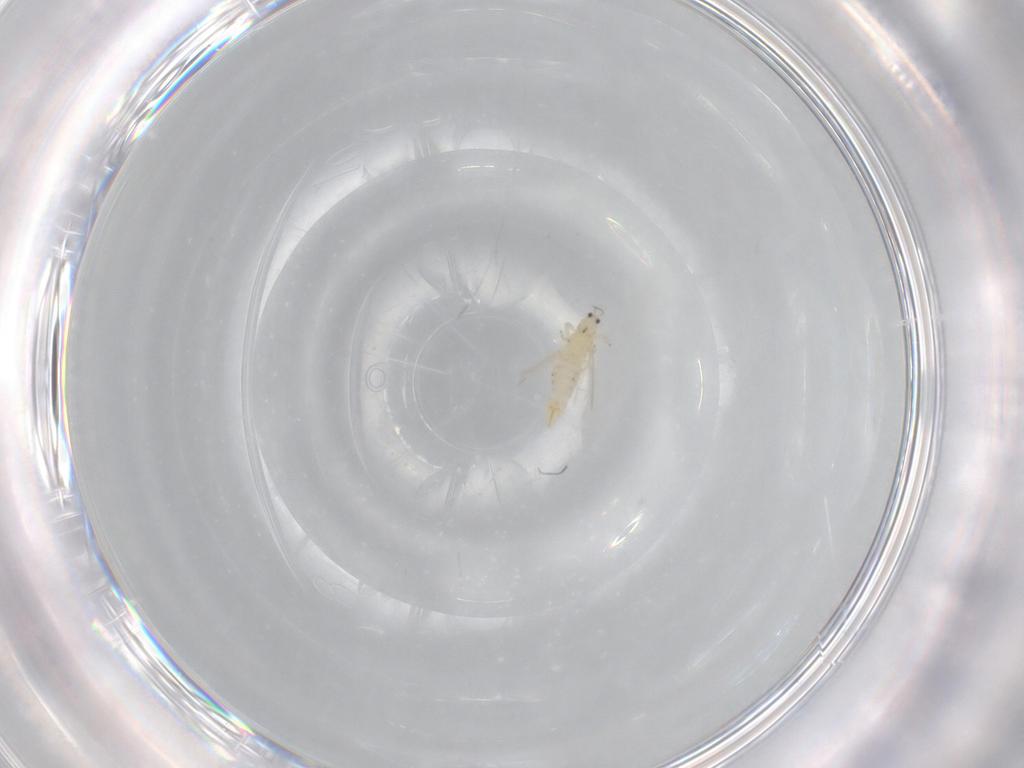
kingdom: Animalia
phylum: Arthropoda
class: Insecta
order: Thysanoptera
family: Thripidae
